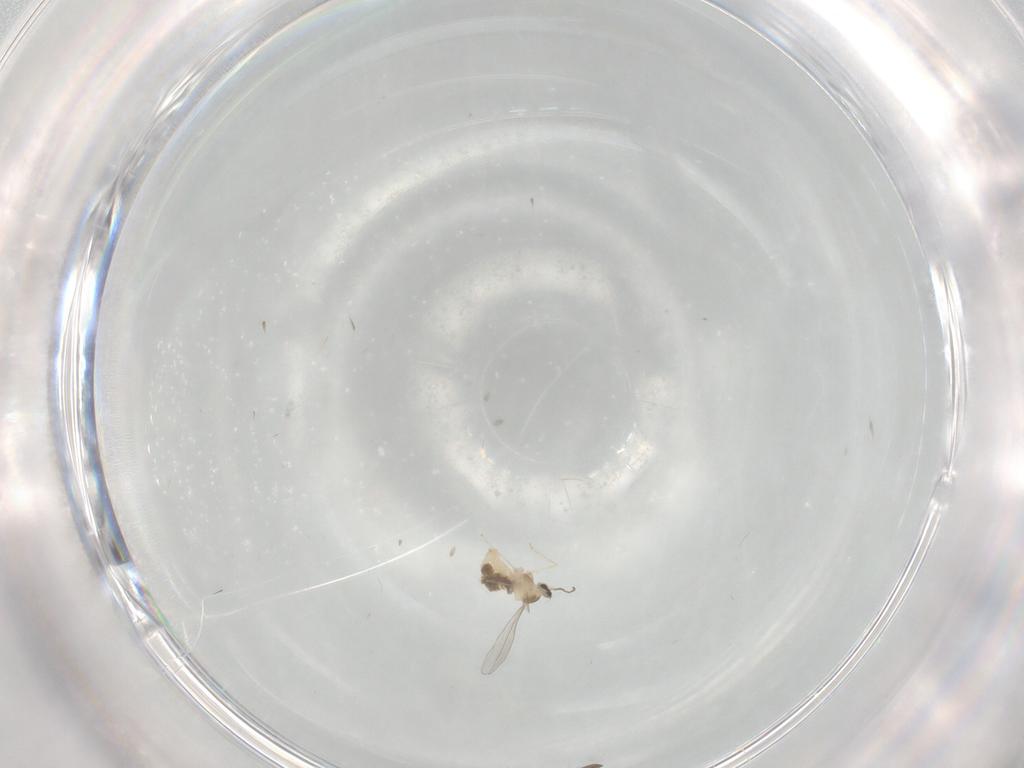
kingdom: Animalia
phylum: Arthropoda
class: Insecta
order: Diptera
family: Cecidomyiidae
